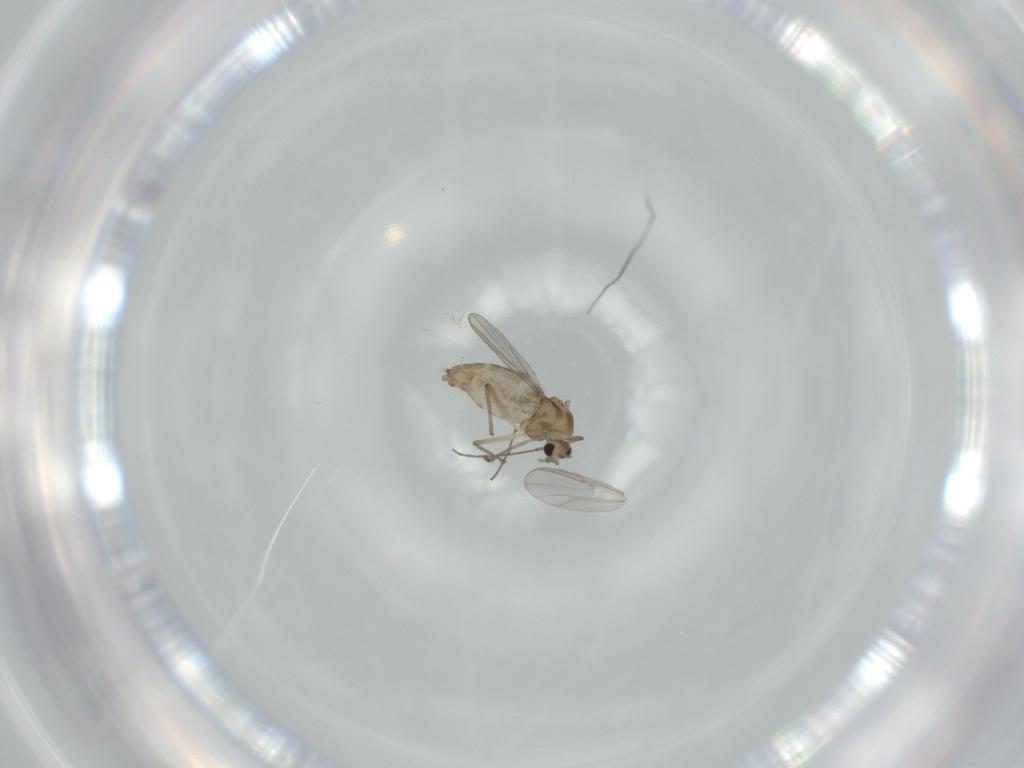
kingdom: Animalia
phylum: Arthropoda
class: Insecta
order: Diptera
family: Chironomidae
